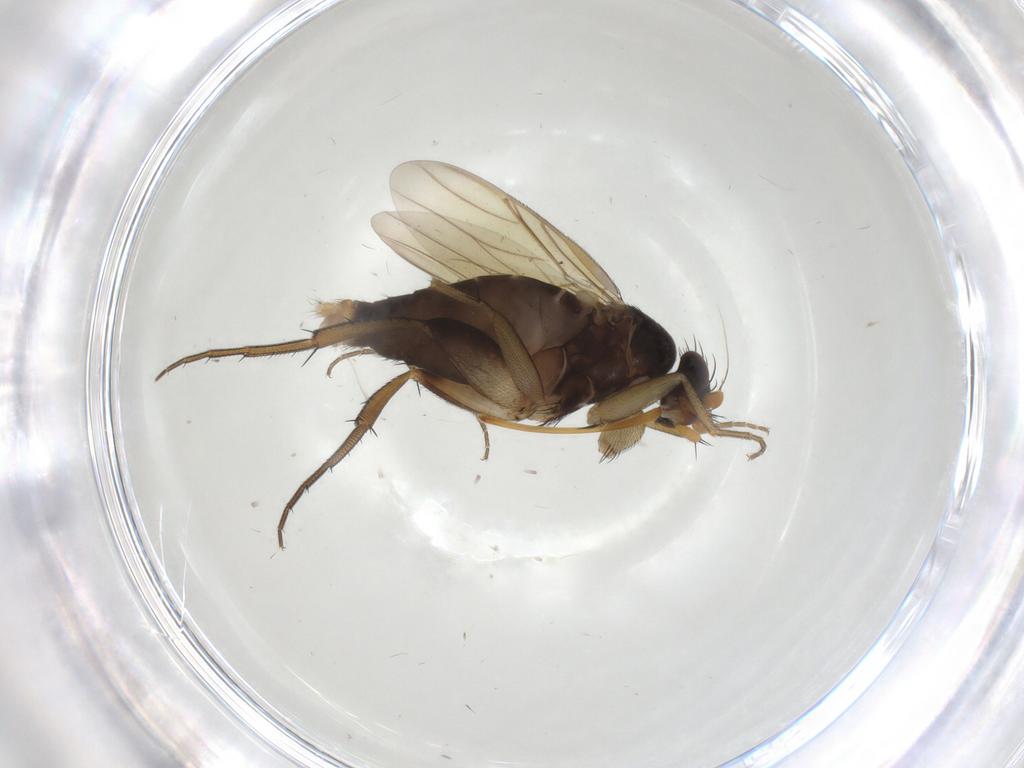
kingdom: Animalia
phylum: Arthropoda
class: Insecta
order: Diptera
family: Phoridae
